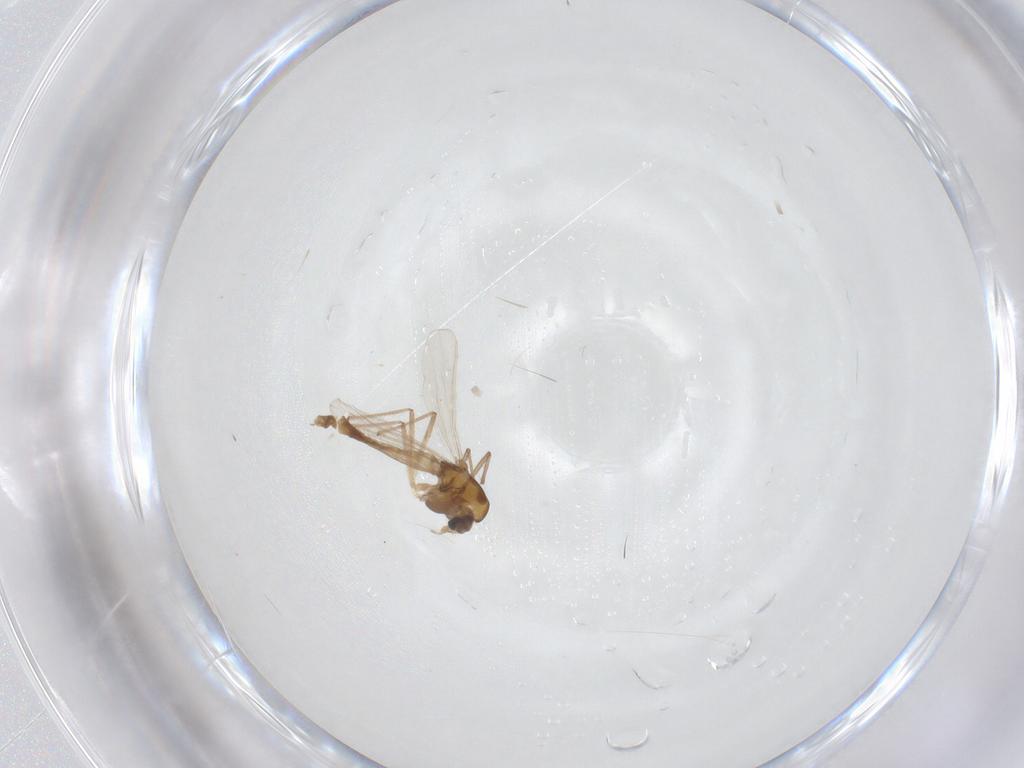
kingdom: Animalia
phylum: Arthropoda
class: Insecta
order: Diptera
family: Chironomidae
